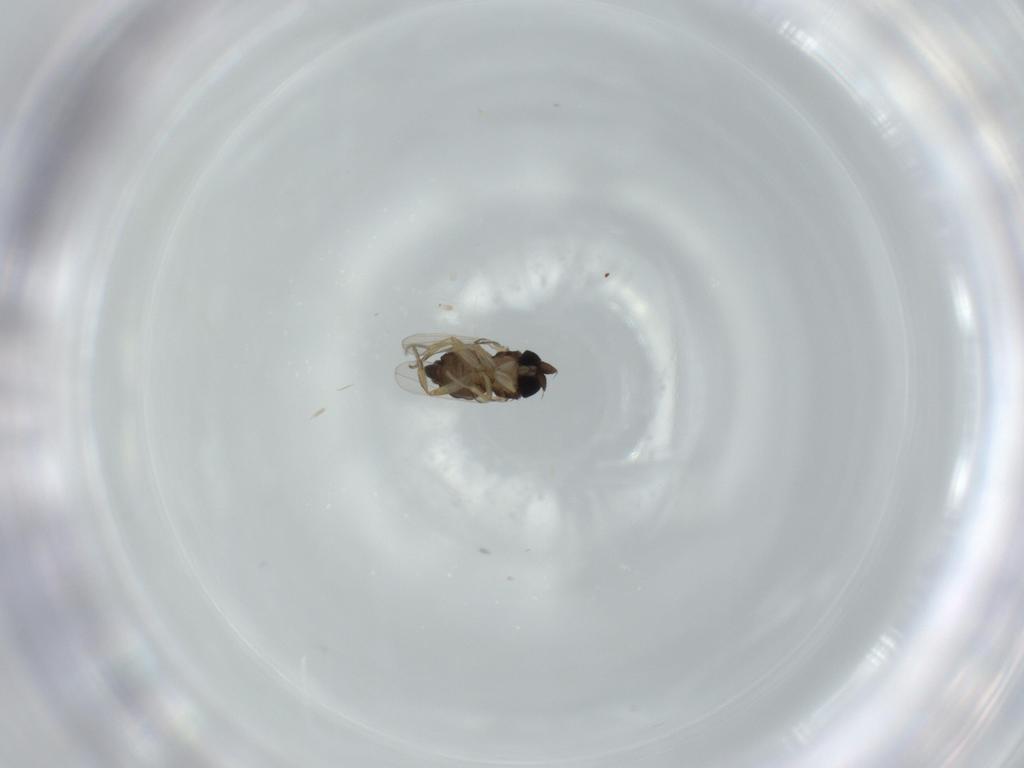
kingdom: Animalia
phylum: Arthropoda
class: Insecta
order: Diptera
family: Phoridae
